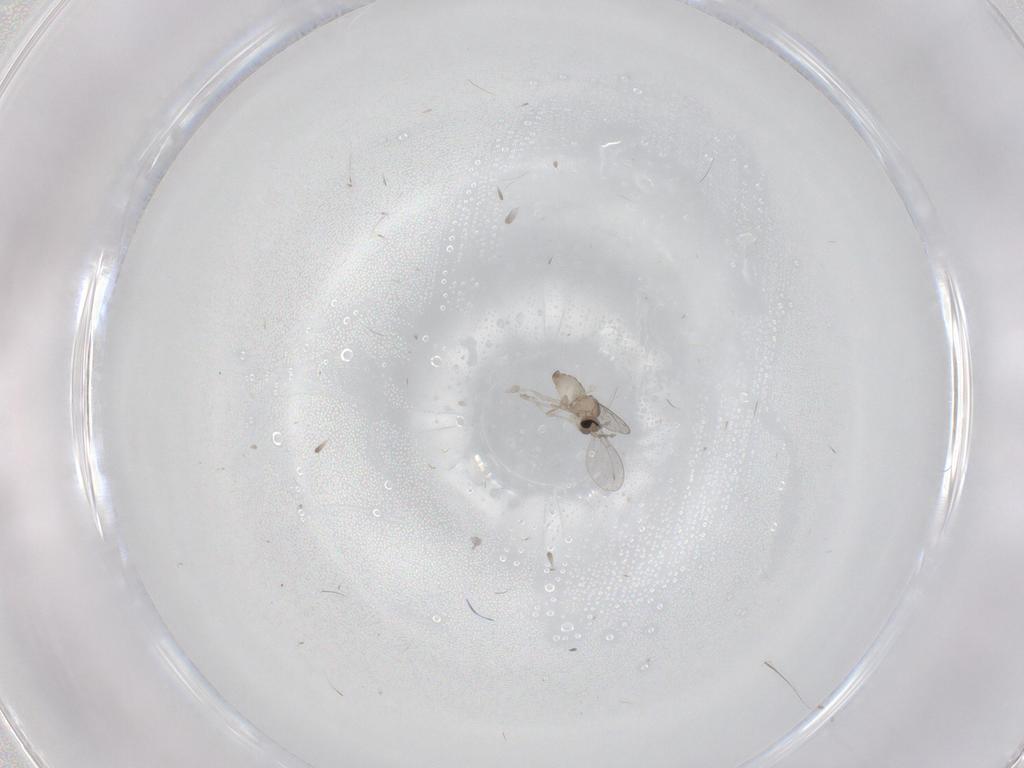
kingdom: Animalia
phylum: Arthropoda
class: Insecta
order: Diptera
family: Cecidomyiidae
